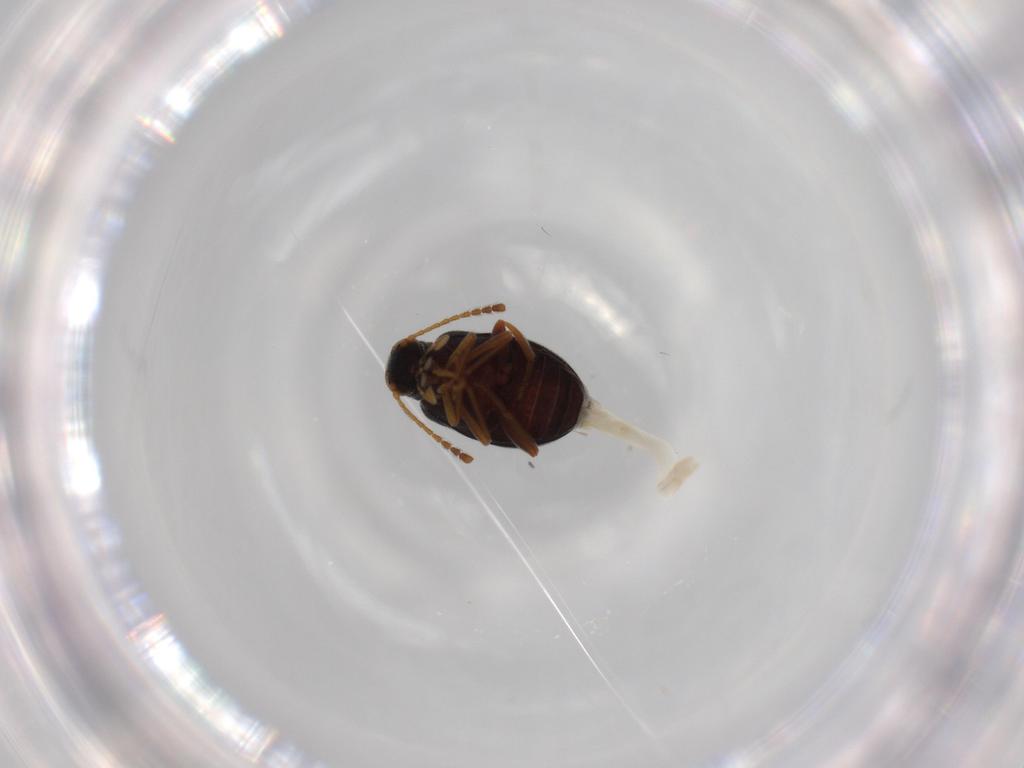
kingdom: Animalia
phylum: Arthropoda
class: Insecta
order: Coleoptera
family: Aderidae
